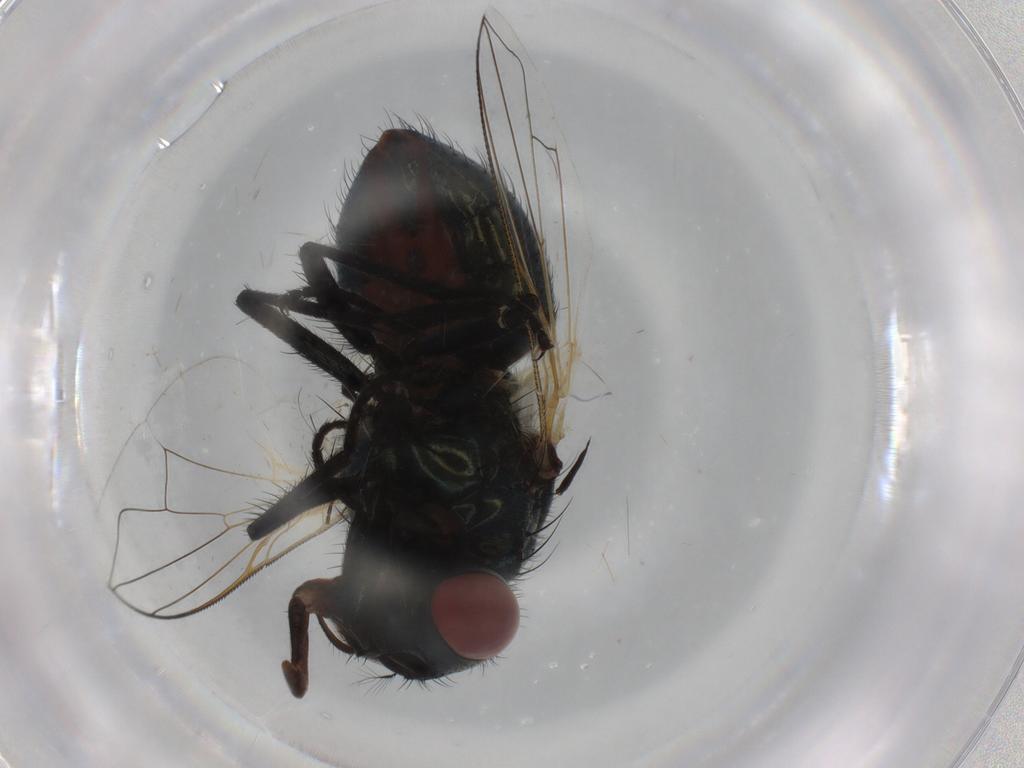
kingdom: Animalia
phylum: Arthropoda
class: Insecta
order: Diptera
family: Muscidae
